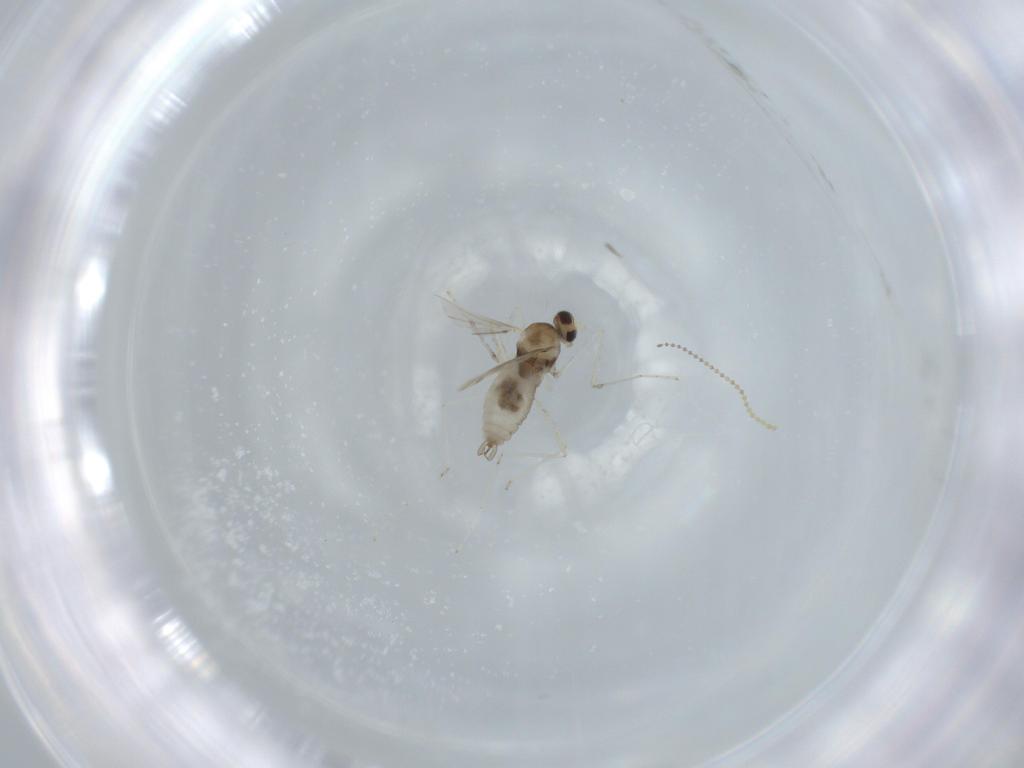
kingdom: Animalia
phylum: Arthropoda
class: Insecta
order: Diptera
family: Cecidomyiidae
